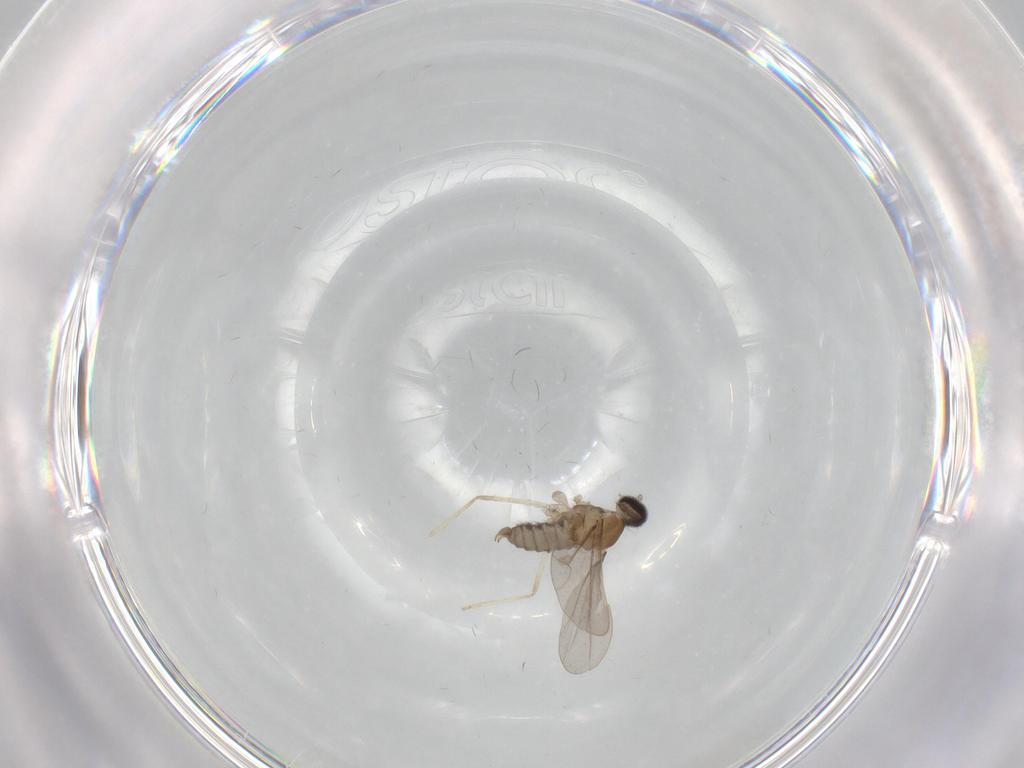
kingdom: Animalia
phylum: Arthropoda
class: Insecta
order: Diptera
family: Cecidomyiidae
